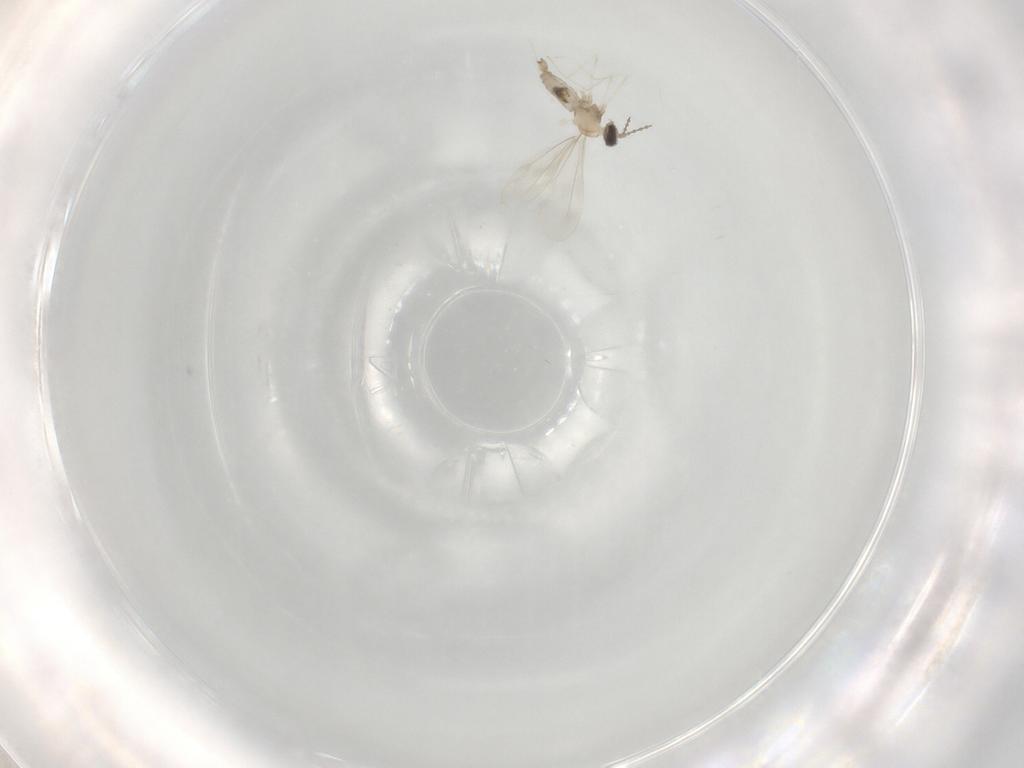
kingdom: Animalia
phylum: Arthropoda
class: Insecta
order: Diptera
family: Cecidomyiidae
